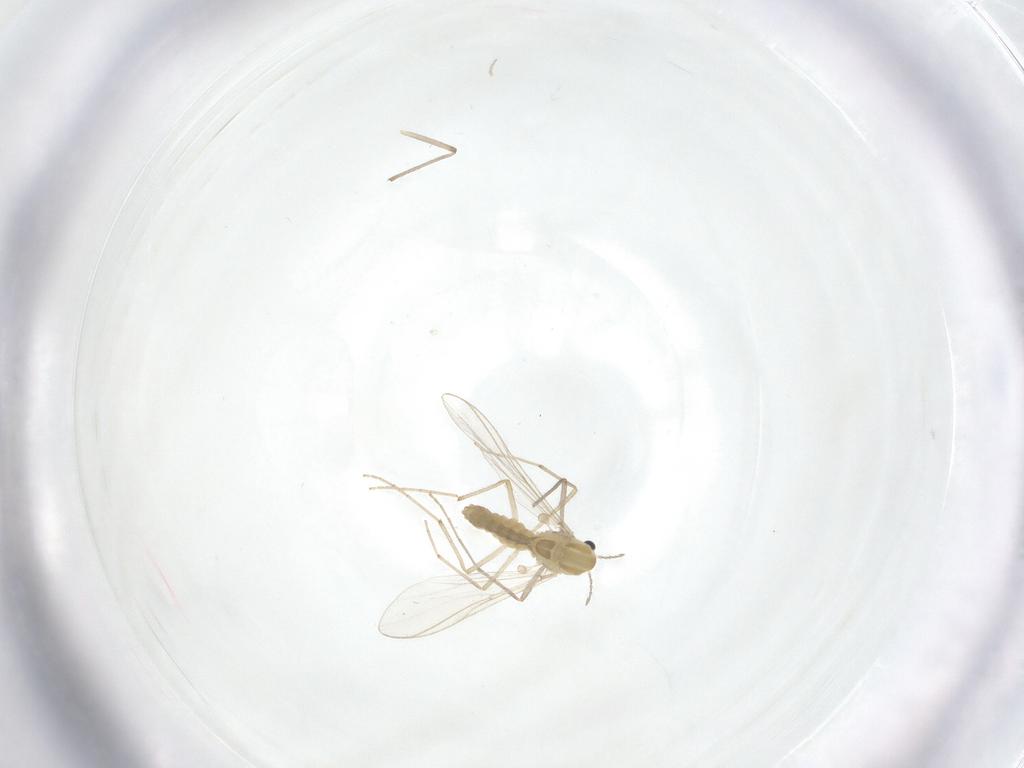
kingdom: Animalia
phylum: Arthropoda
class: Insecta
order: Diptera
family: Chironomidae
